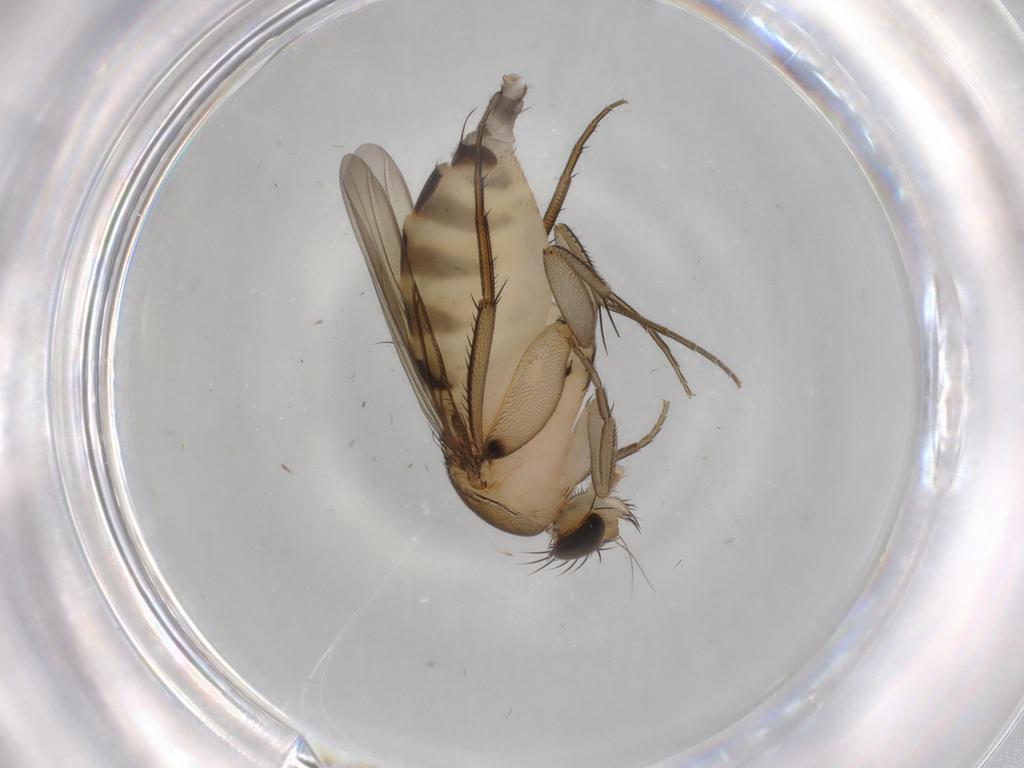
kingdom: Animalia
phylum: Arthropoda
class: Insecta
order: Diptera
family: Phoridae
